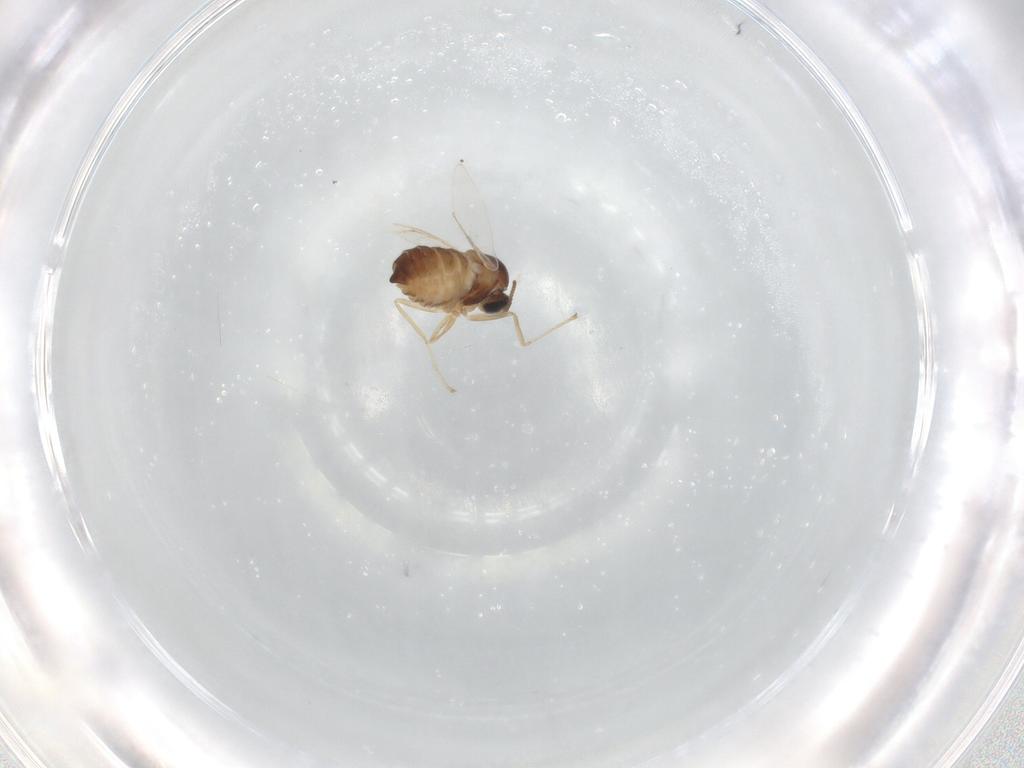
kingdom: Animalia
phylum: Arthropoda
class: Insecta
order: Diptera
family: Cecidomyiidae
